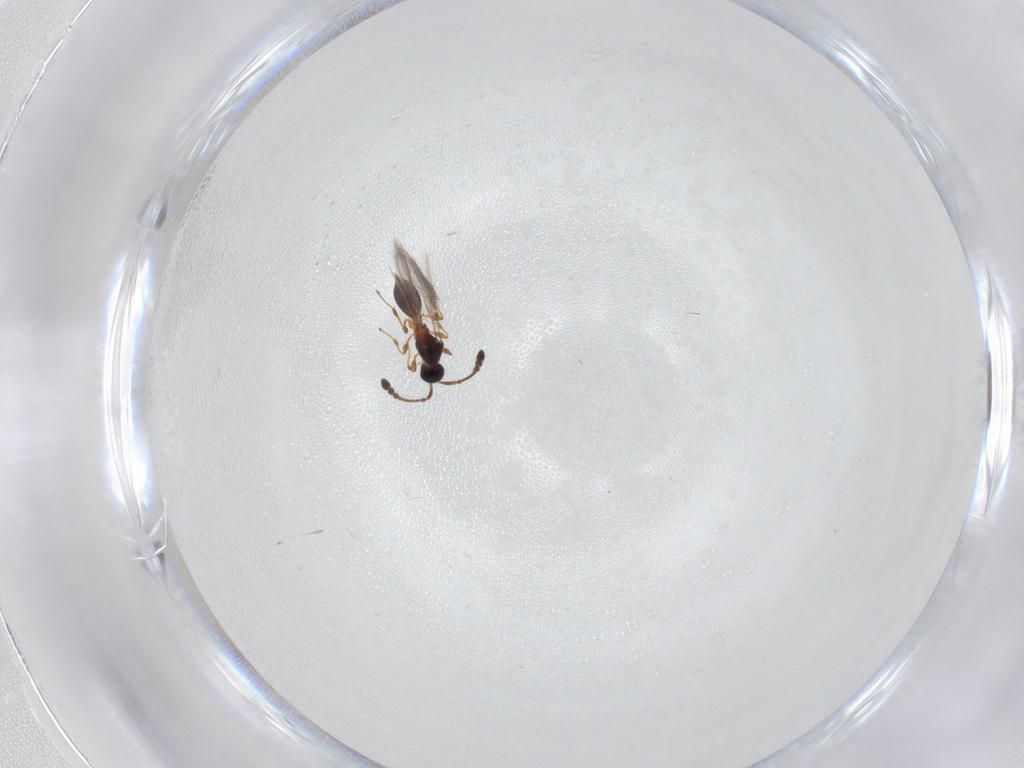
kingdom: Animalia
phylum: Arthropoda
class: Insecta
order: Hymenoptera
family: Diapriidae
